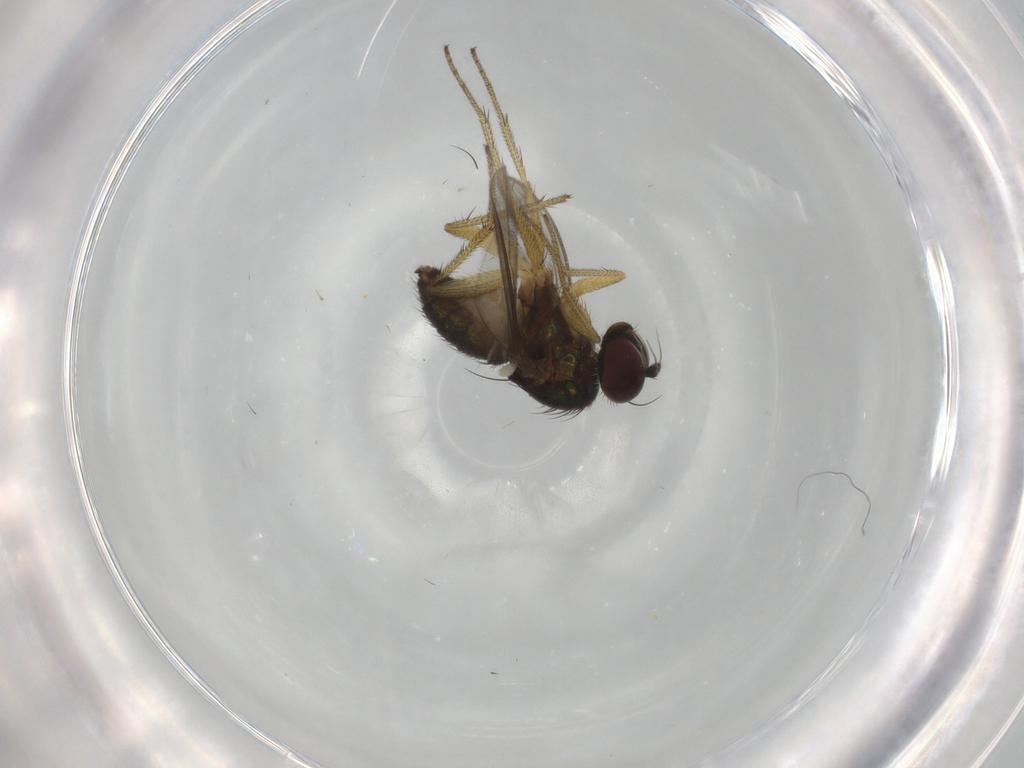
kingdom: Animalia
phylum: Arthropoda
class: Insecta
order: Diptera
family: Dolichopodidae
